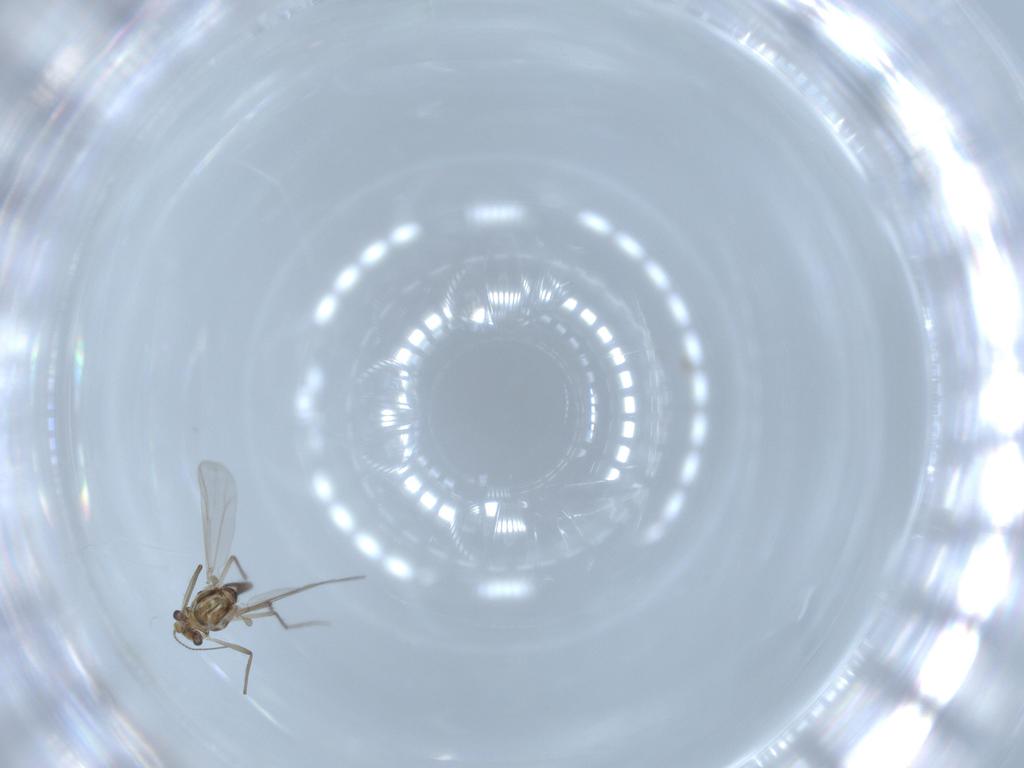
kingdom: Animalia
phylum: Arthropoda
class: Insecta
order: Diptera
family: Chironomidae
